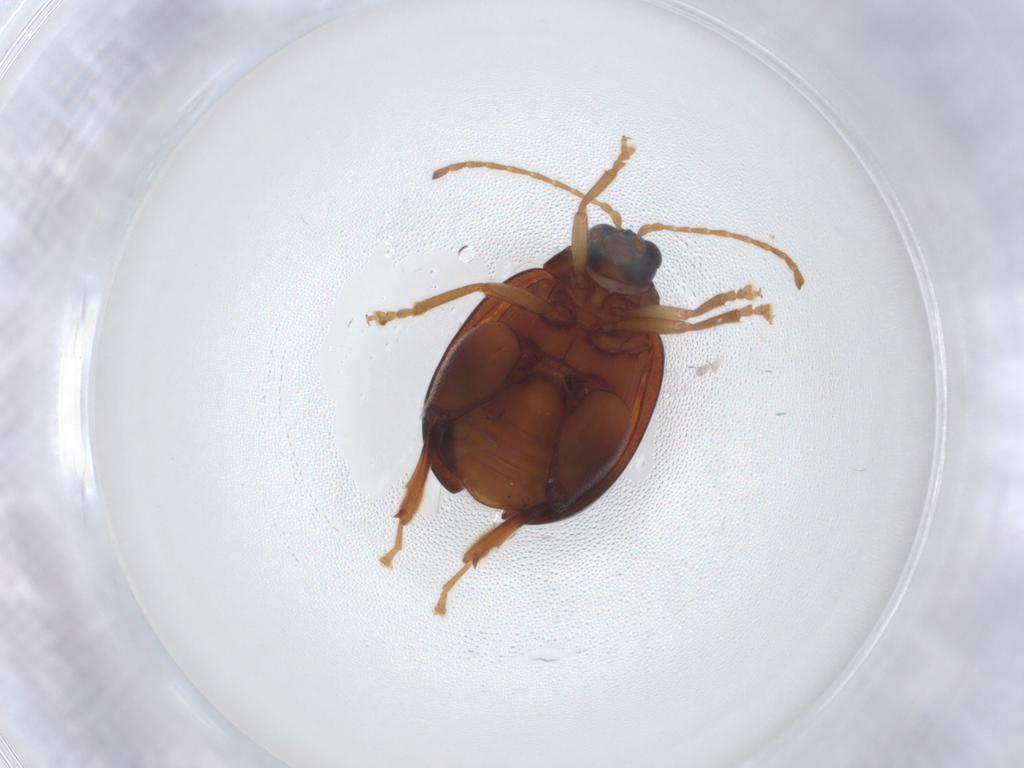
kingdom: Animalia
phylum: Arthropoda
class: Insecta
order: Coleoptera
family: Chrysomelidae
